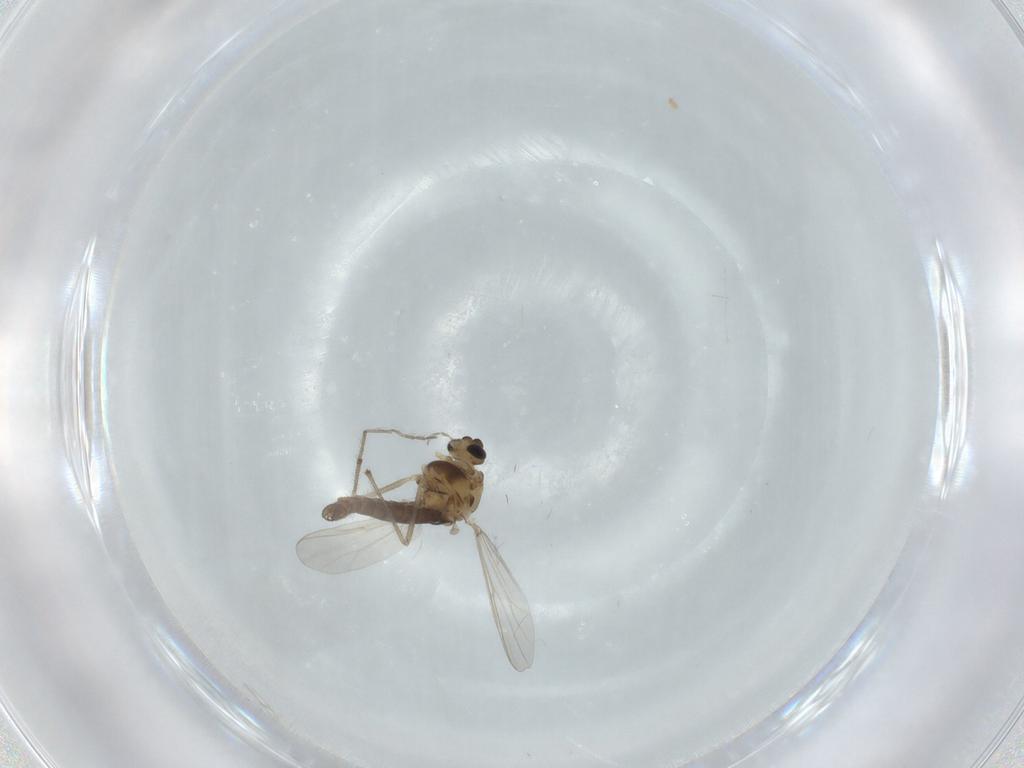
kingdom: Animalia
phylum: Arthropoda
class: Insecta
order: Diptera
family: Chironomidae
